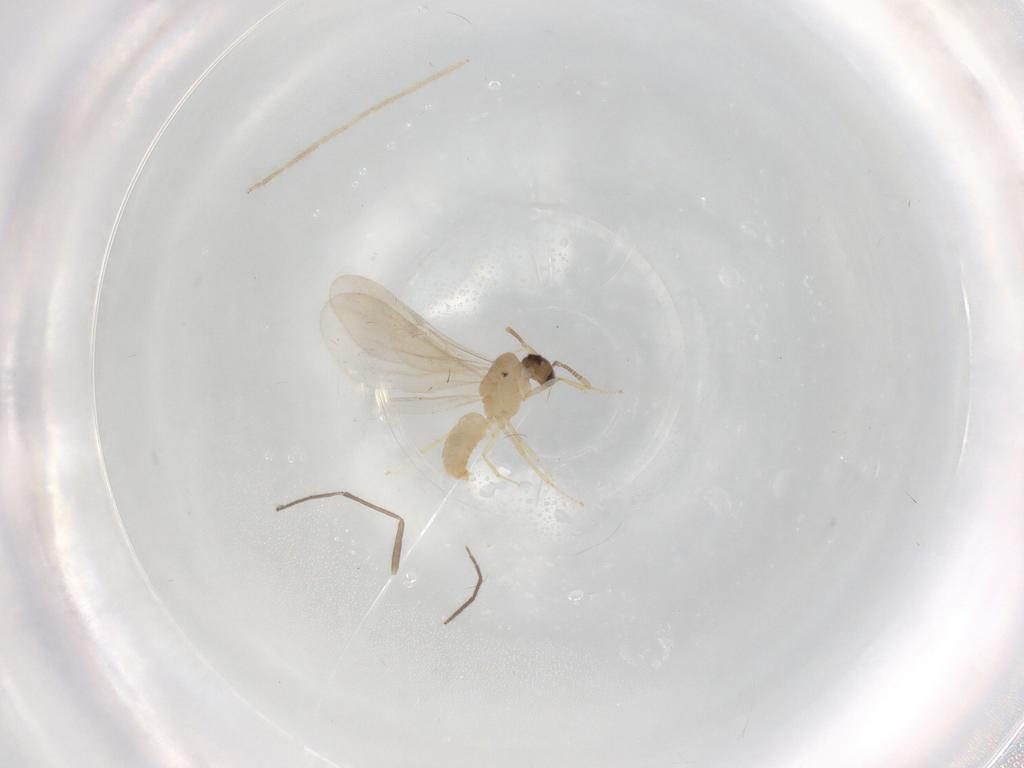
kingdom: Animalia
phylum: Arthropoda
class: Insecta
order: Hymenoptera
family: Formicidae
